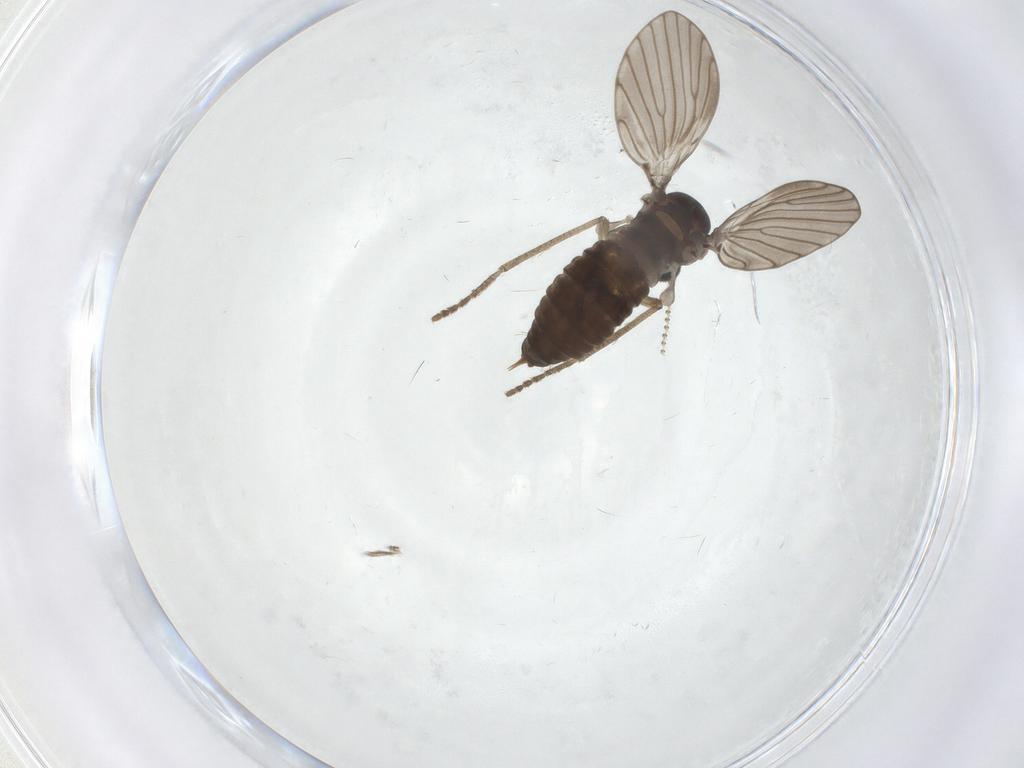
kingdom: Animalia
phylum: Arthropoda
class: Insecta
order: Diptera
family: Psychodidae
